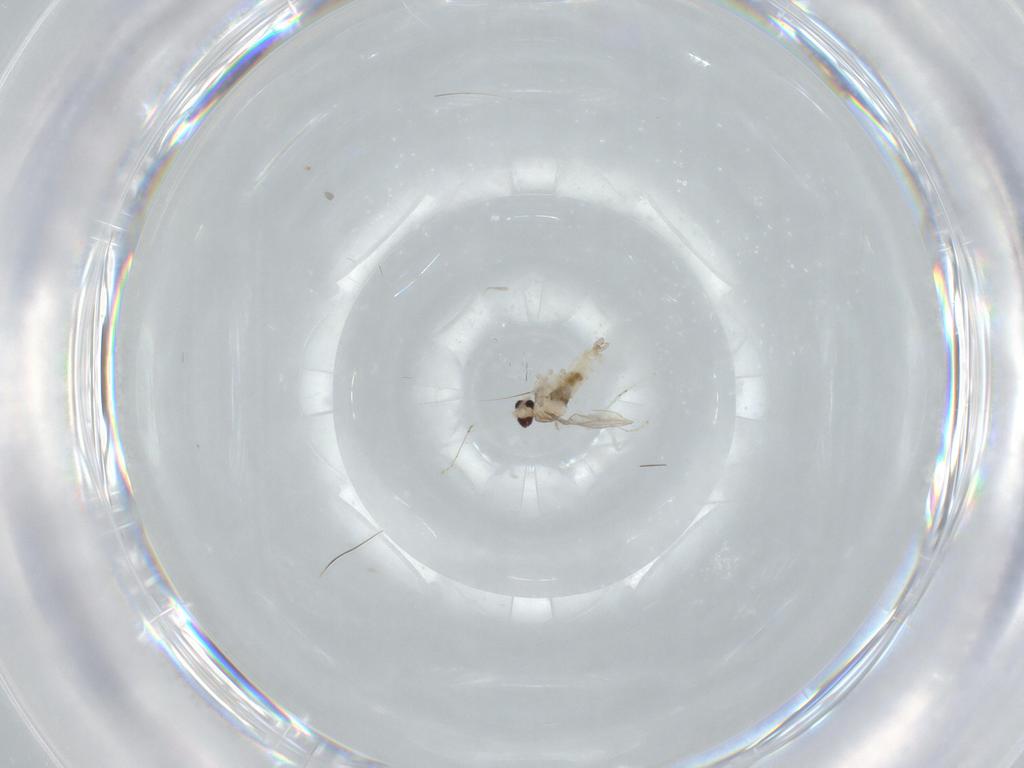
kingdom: Animalia
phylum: Arthropoda
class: Insecta
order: Diptera
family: Cecidomyiidae
